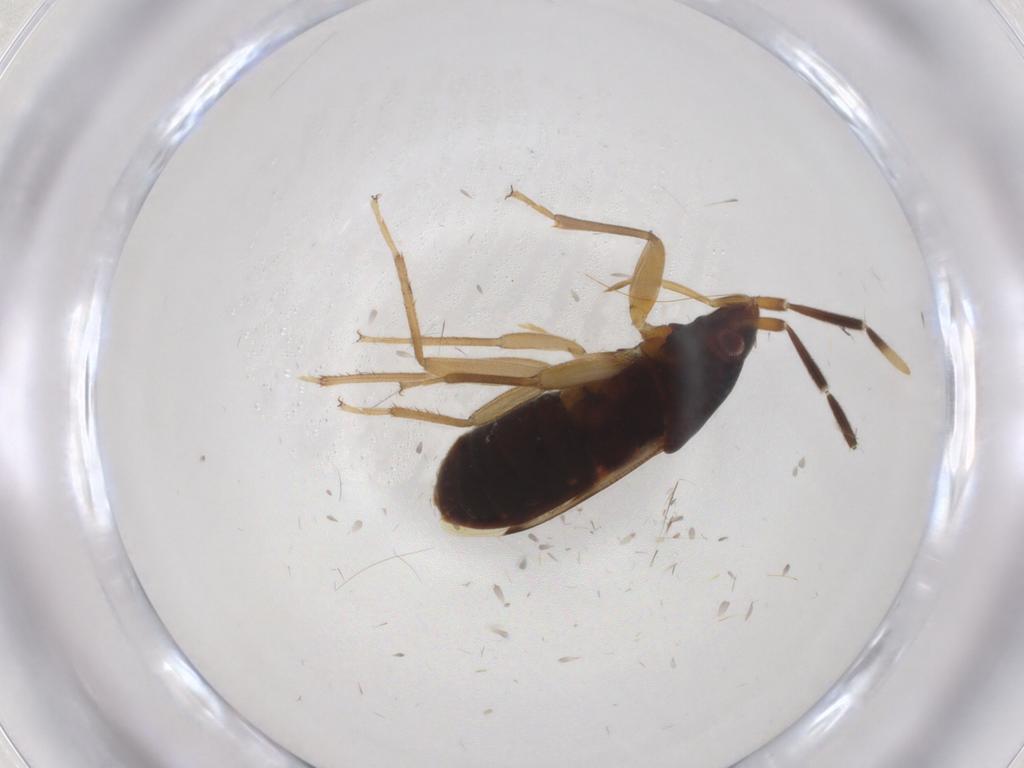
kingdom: Animalia
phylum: Arthropoda
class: Insecta
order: Hemiptera
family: Rhyparochromidae
